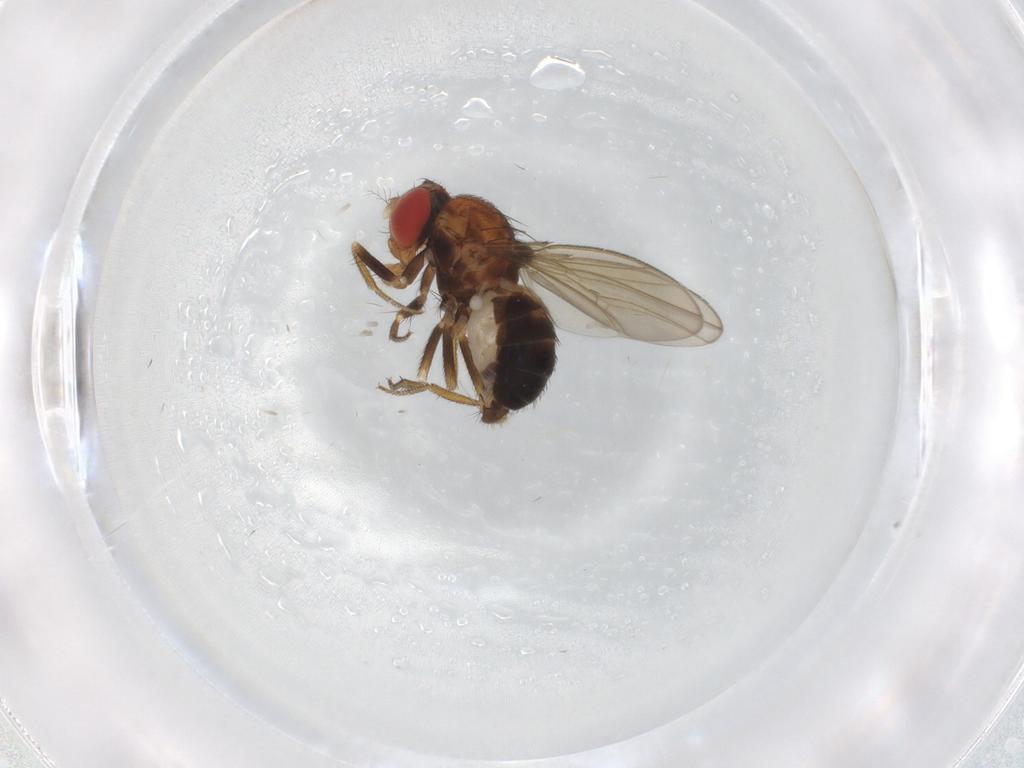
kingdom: Animalia
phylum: Arthropoda
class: Insecta
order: Diptera
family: Drosophilidae
